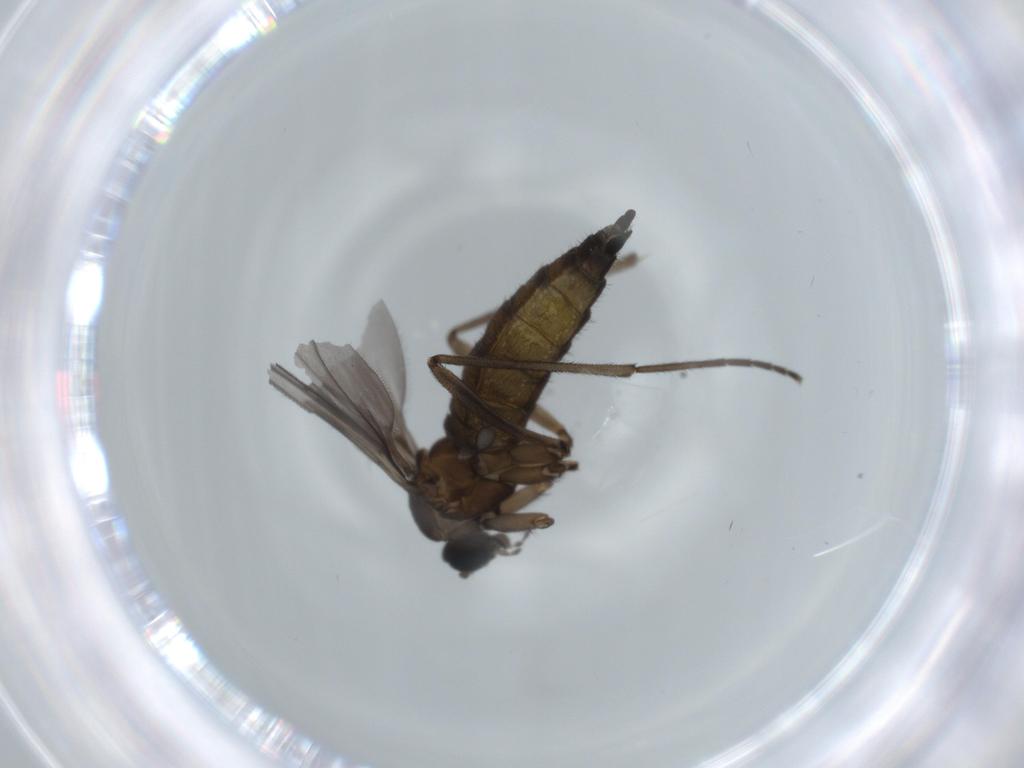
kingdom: Animalia
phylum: Arthropoda
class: Insecta
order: Diptera
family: Sciaridae
